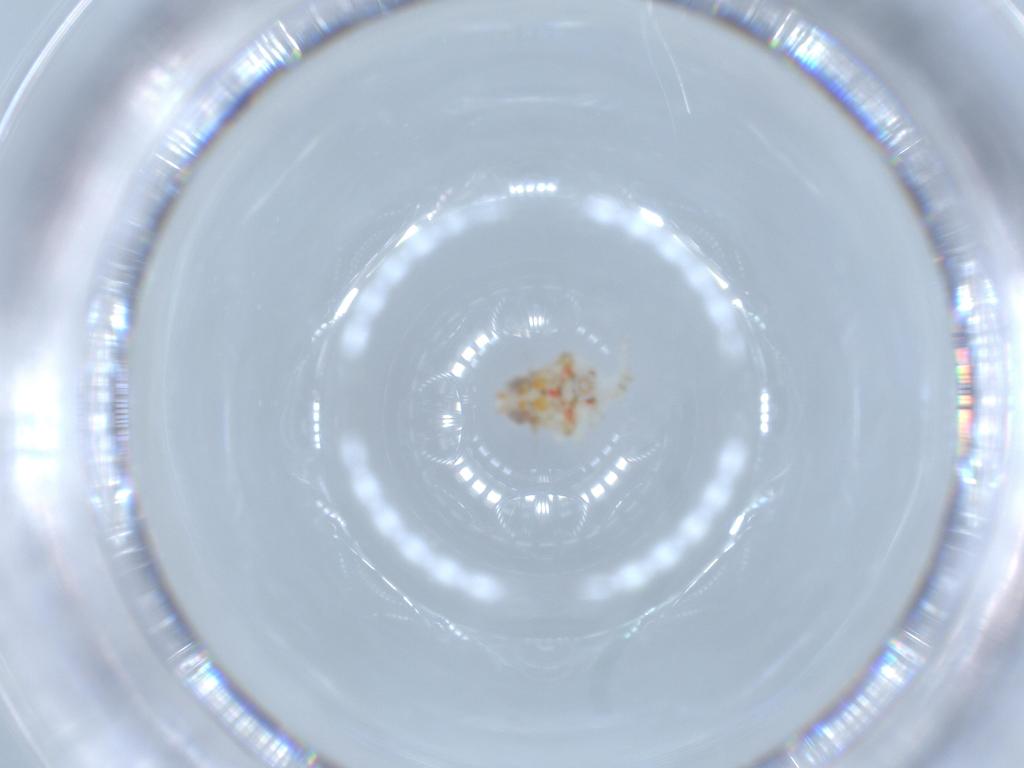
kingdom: Animalia
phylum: Arthropoda
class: Insecta
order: Hemiptera
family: Nogodinidae
